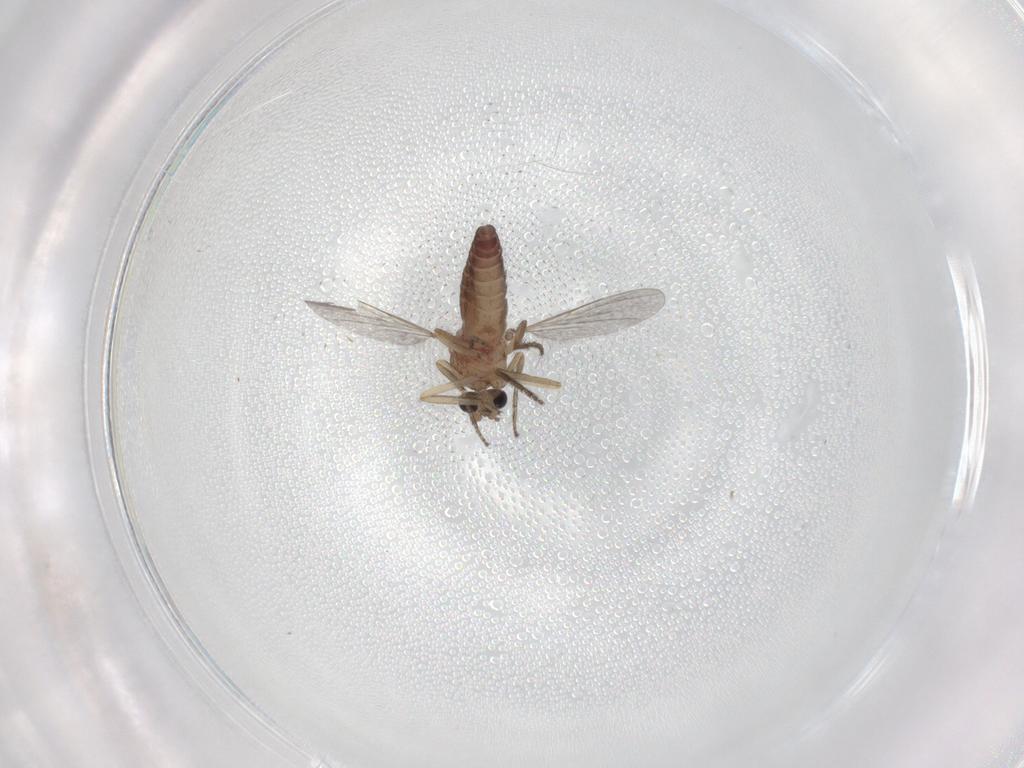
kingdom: Animalia
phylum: Arthropoda
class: Insecta
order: Diptera
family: Ceratopogonidae
